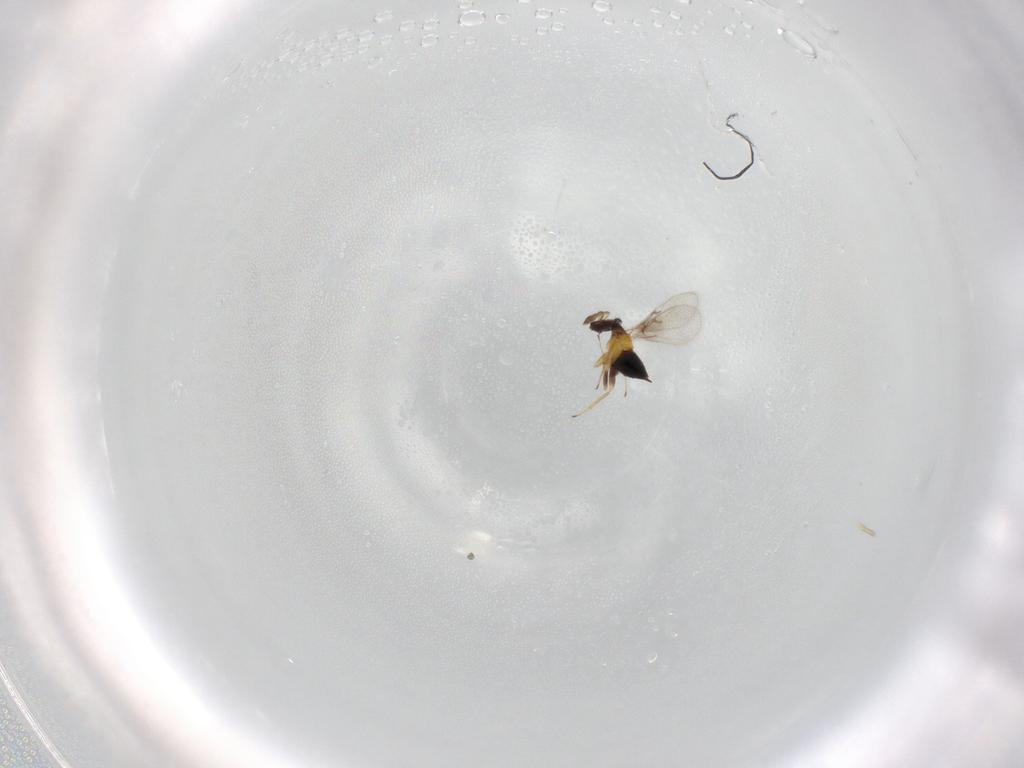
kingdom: Animalia
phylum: Arthropoda
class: Insecta
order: Hymenoptera
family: Trichogrammatidae
